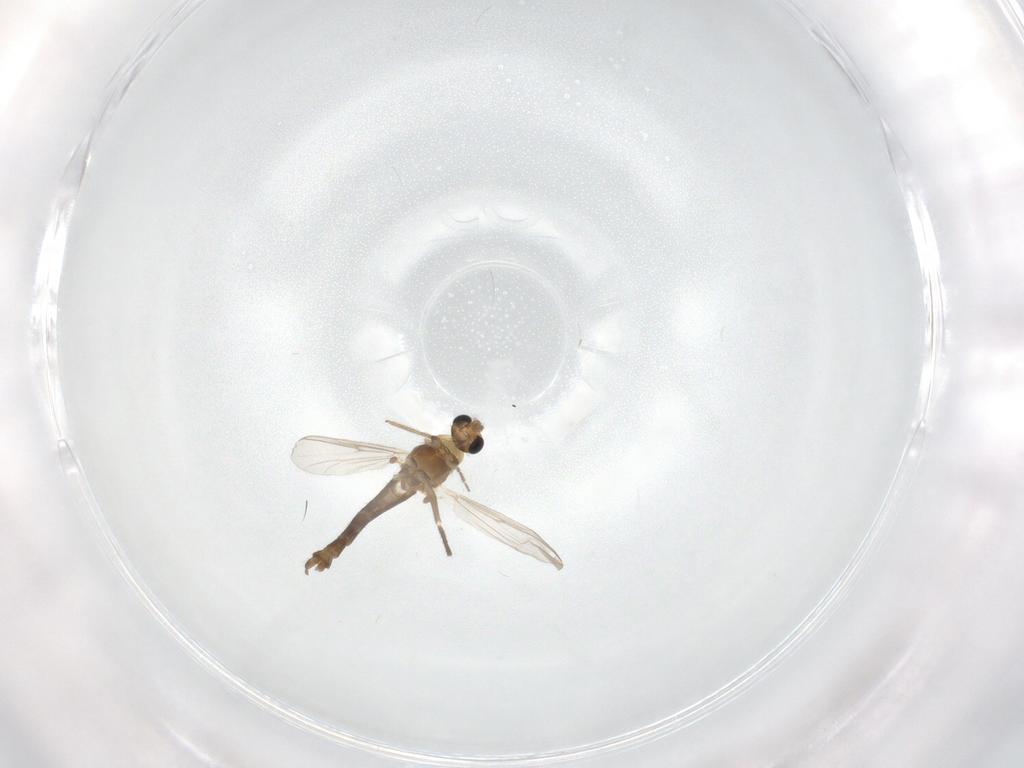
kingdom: Animalia
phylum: Arthropoda
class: Insecta
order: Diptera
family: Chironomidae
